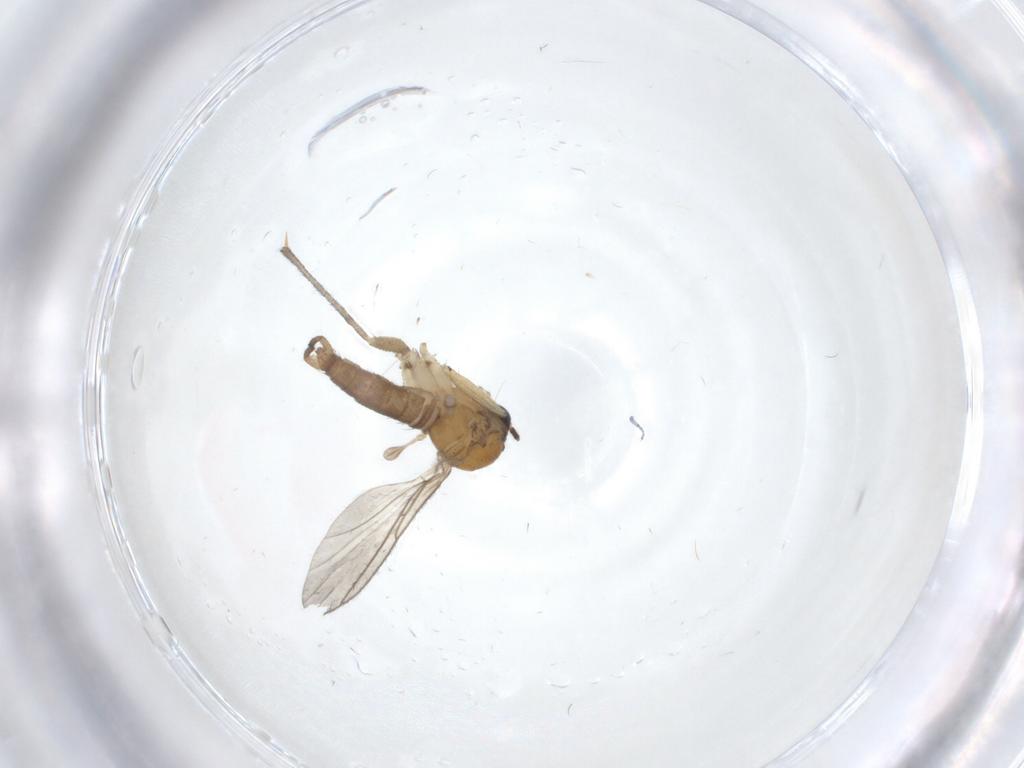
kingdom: Animalia
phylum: Arthropoda
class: Insecta
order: Diptera
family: Sciaridae
